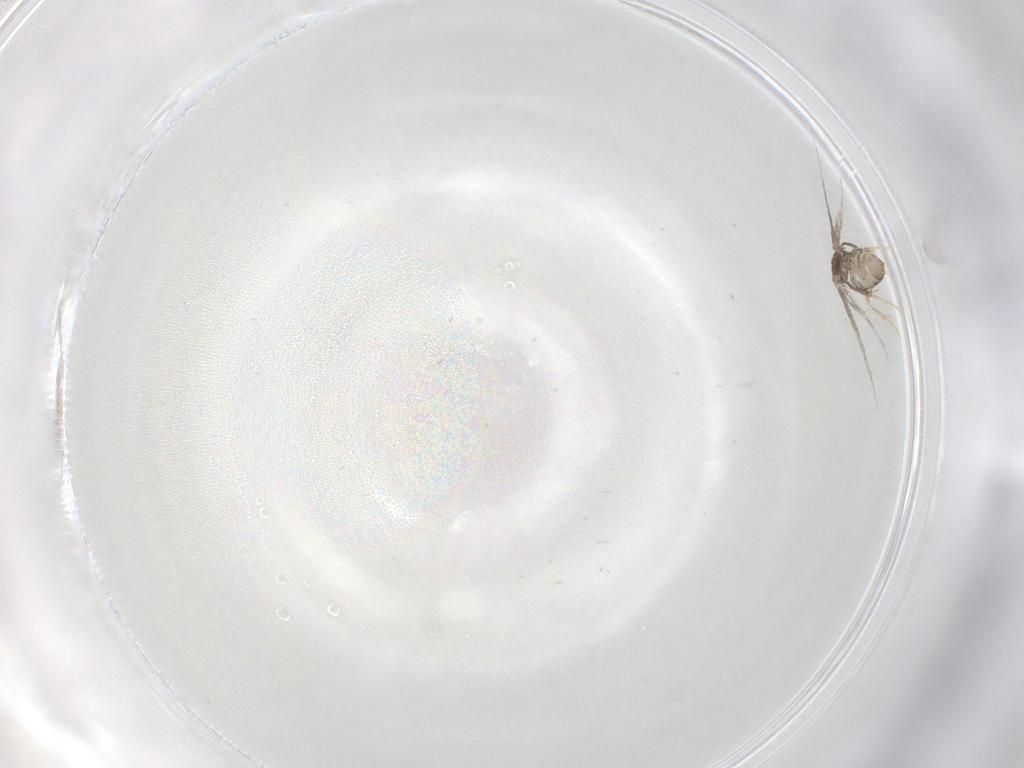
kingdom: Animalia
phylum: Arthropoda
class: Insecta
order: Lepidoptera
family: Nepticulidae
